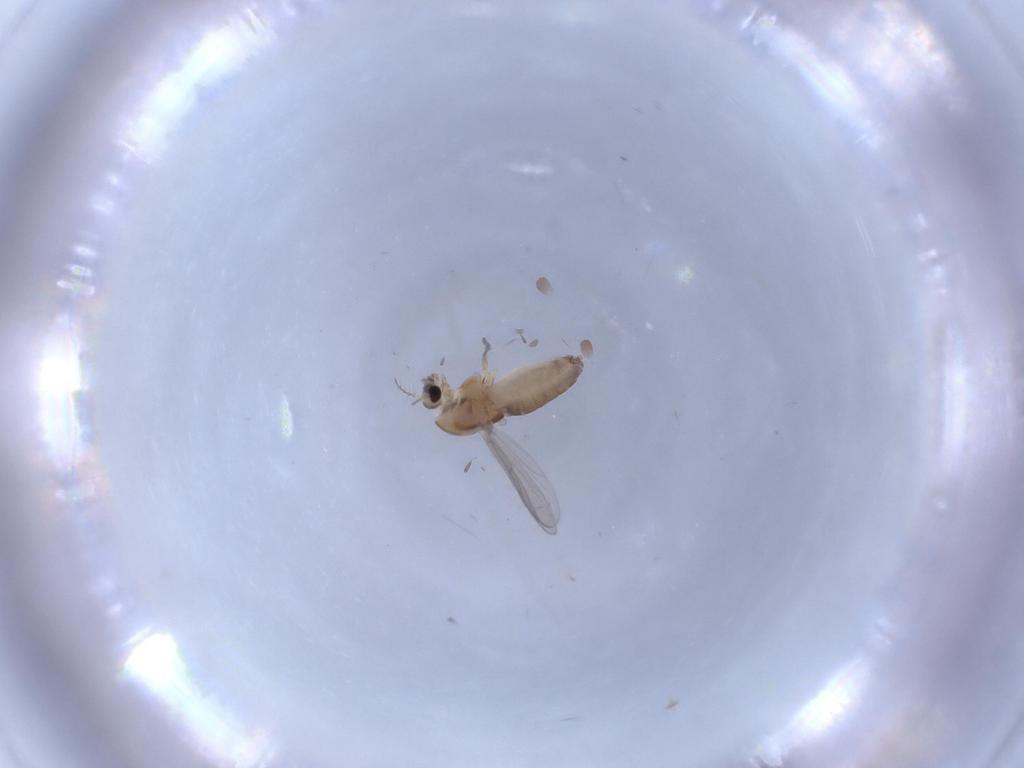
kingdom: Animalia
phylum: Arthropoda
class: Insecta
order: Diptera
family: Chironomidae
